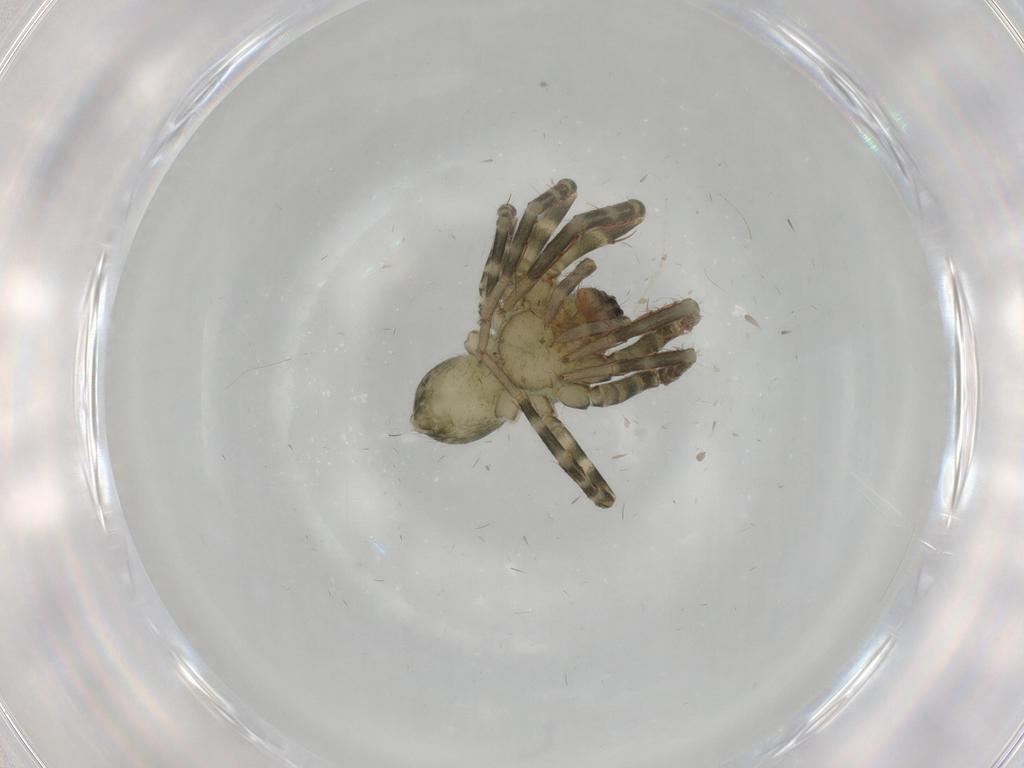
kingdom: Animalia
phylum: Arthropoda
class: Arachnida
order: Araneae
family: Ctenidae
